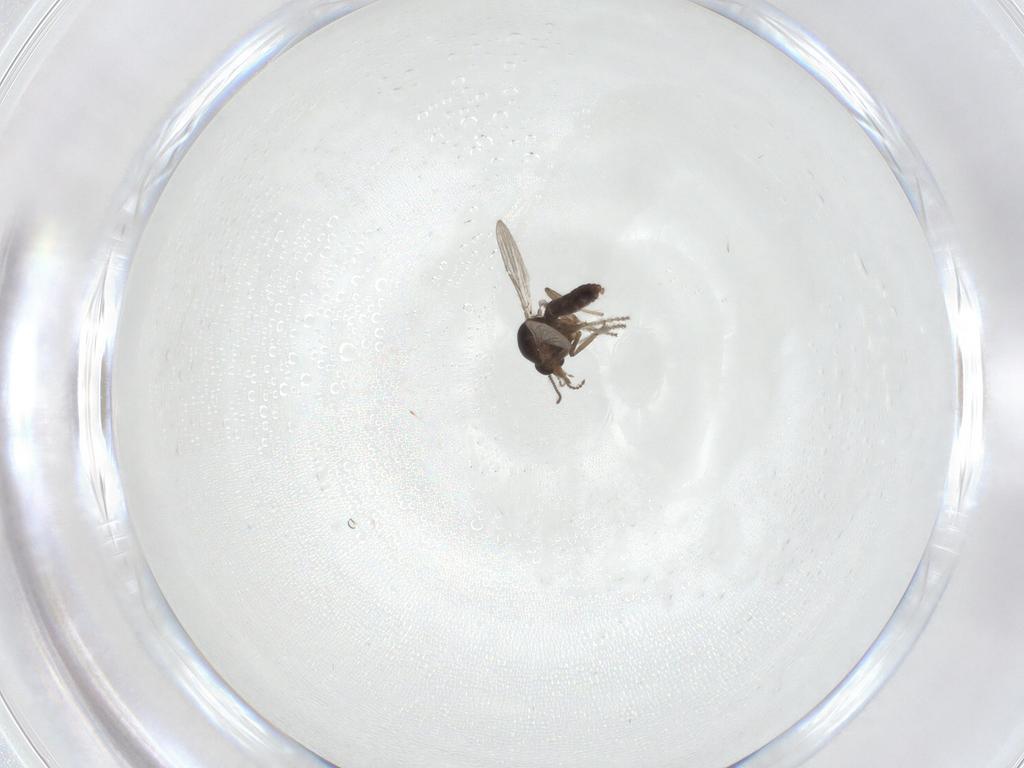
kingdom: Animalia
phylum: Arthropoda
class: Insecta
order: Diptera
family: Ceratopogonidae
